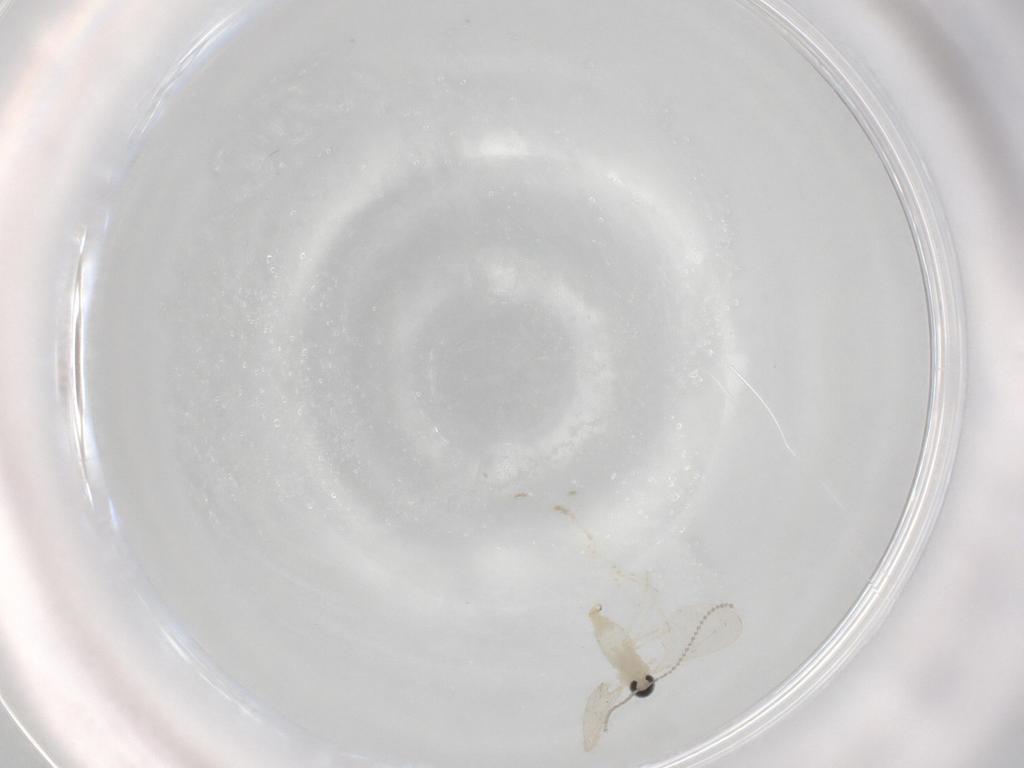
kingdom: Animalia
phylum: Arthropoda
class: Insecta
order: Diptera
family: Cecidomyiidae
